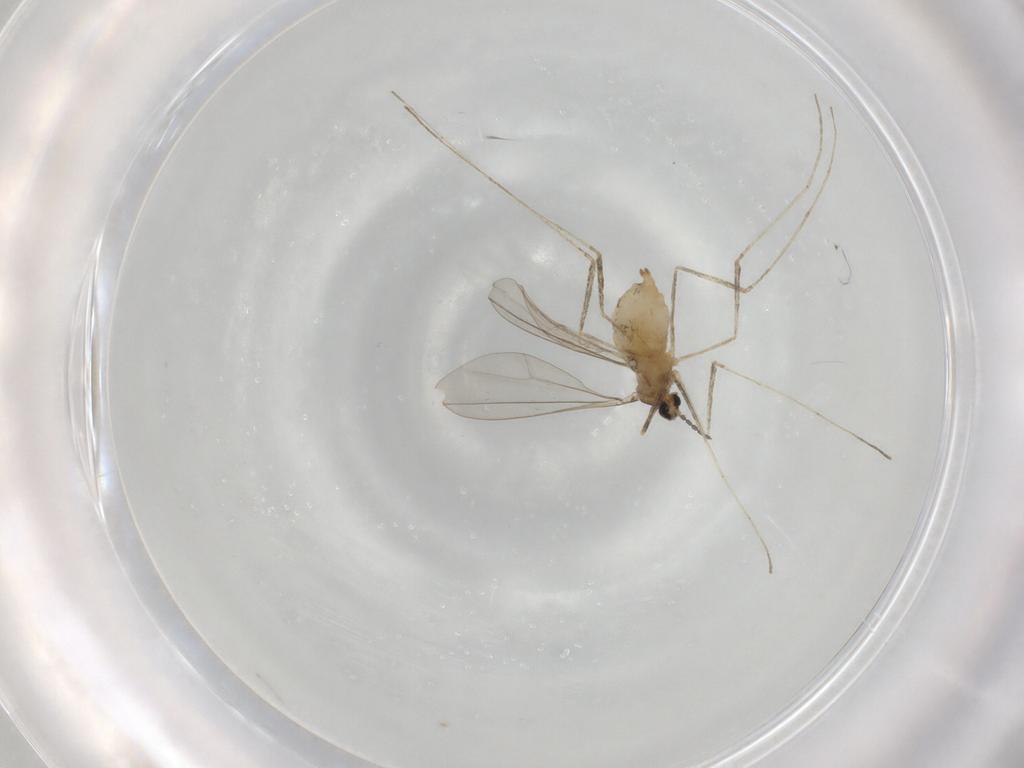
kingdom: Animalia
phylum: Arthropoda
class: Insecta
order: Diptera
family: Cecidomyiidae
